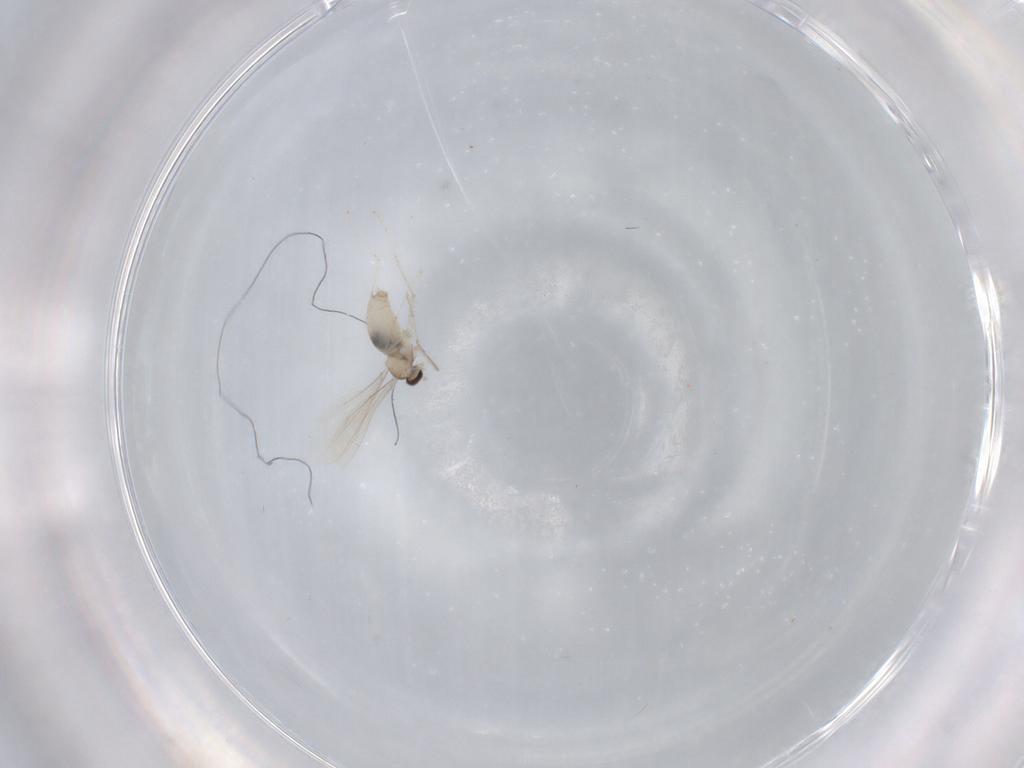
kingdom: Animalia
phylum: Arthropoda
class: Insecta
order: Diptera
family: Cecidomyiidae
